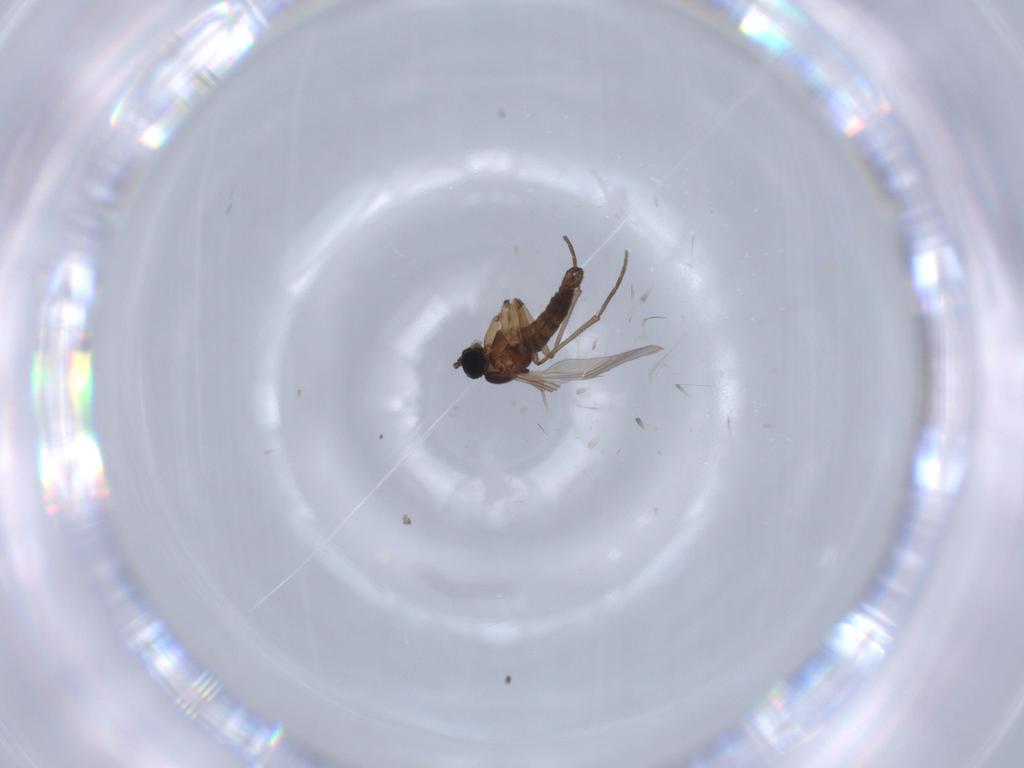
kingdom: Animalia
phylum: Arthropoda
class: Insecta
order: Diptera
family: Sciaridae
